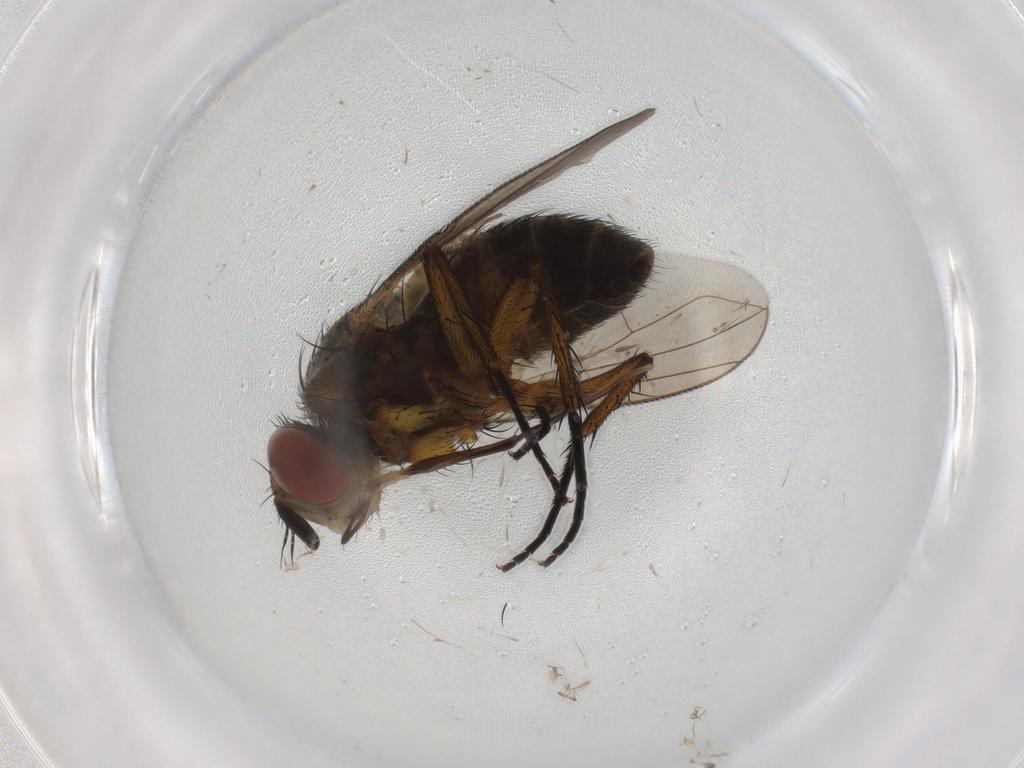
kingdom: Animalia
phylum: Arthropoda
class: Insecta
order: Diptera
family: Tachinidae
